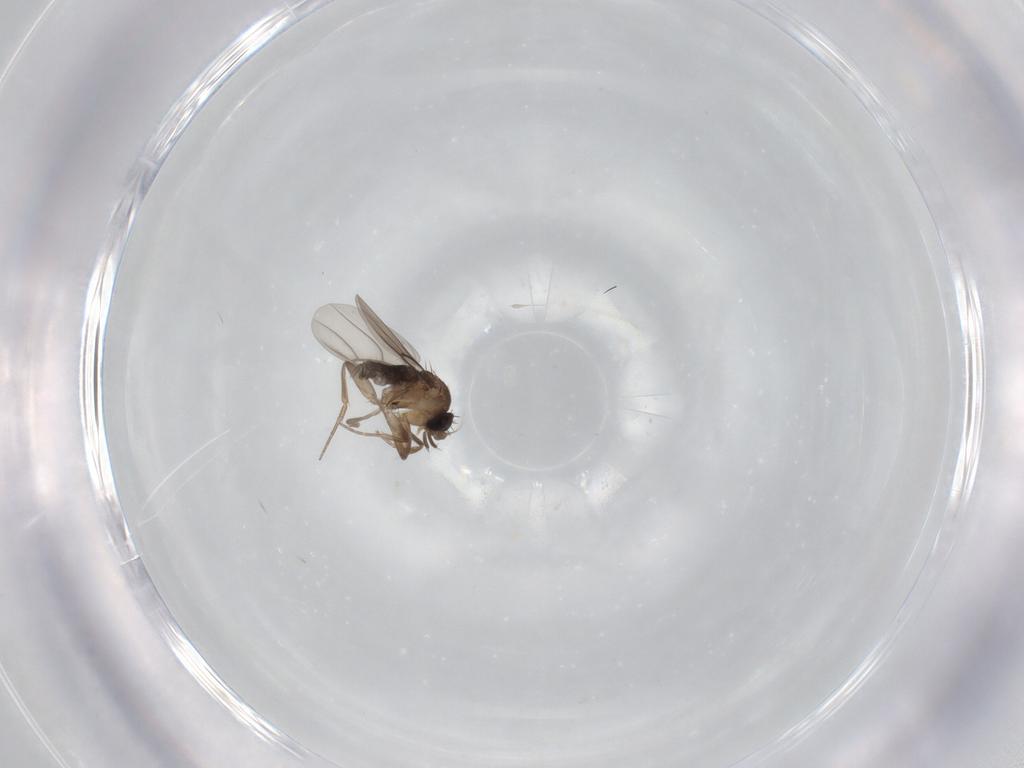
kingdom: Animalia
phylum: Arthropoda
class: Insecta
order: Diptera
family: Phoridae
